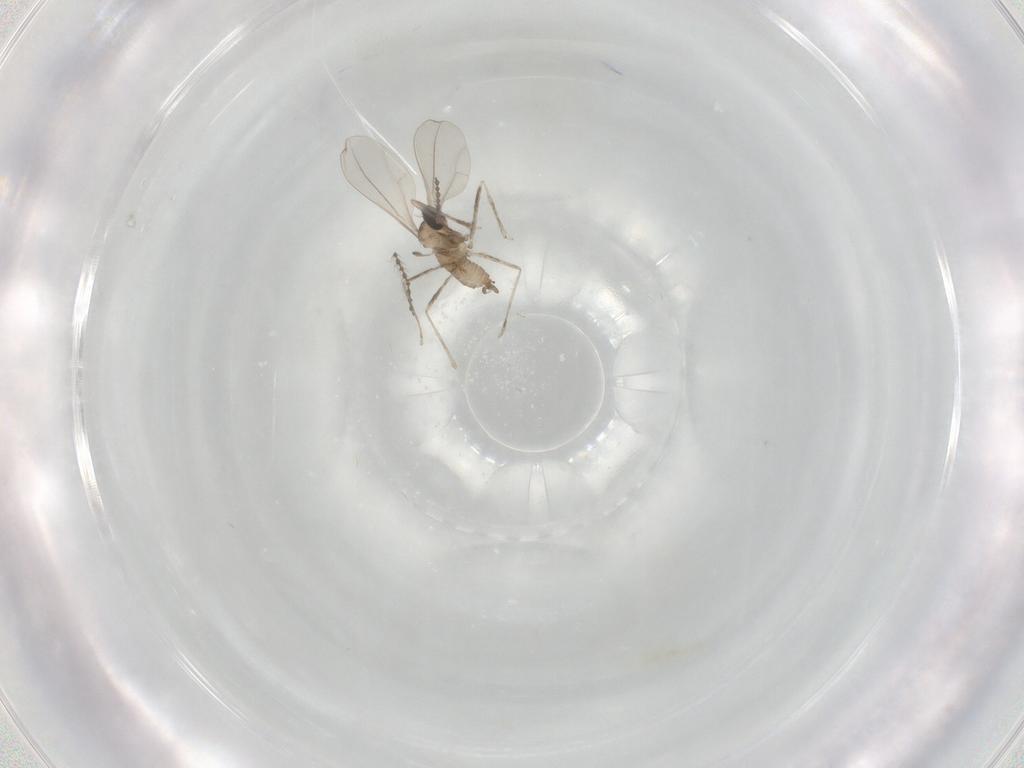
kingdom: Animalia
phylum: Arthropoda
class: Insecta
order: Diptera
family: Cecidomyiidae
